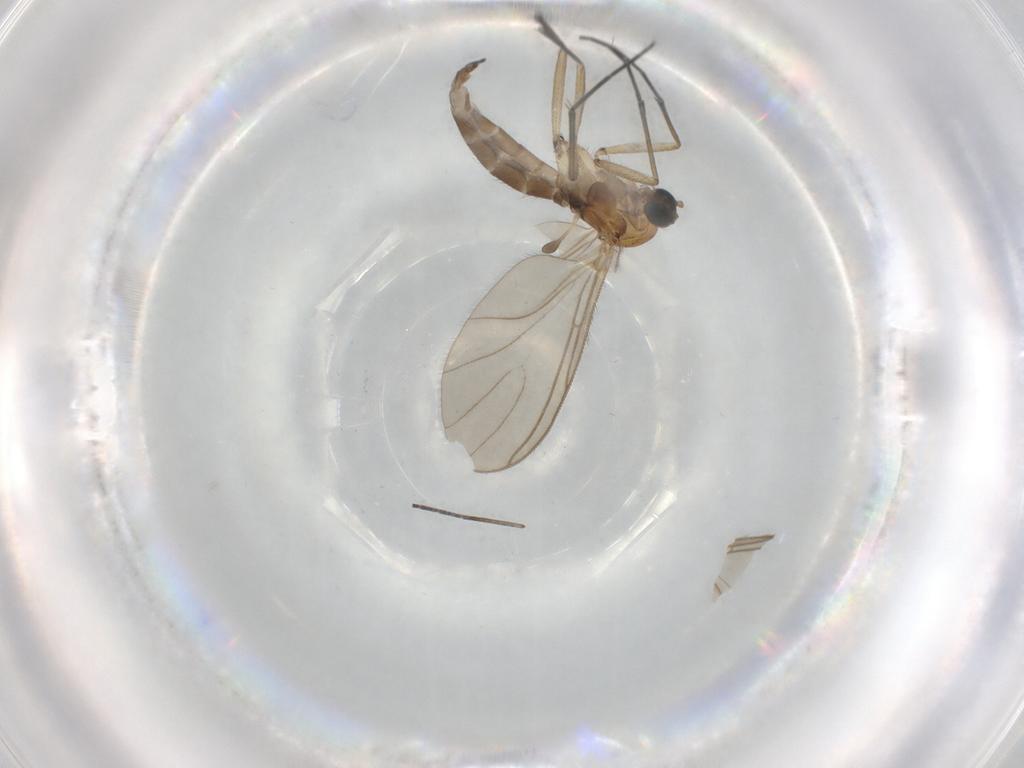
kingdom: Animalia
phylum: Arthropoda
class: Insecta
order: Diptera
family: Sciaridae
